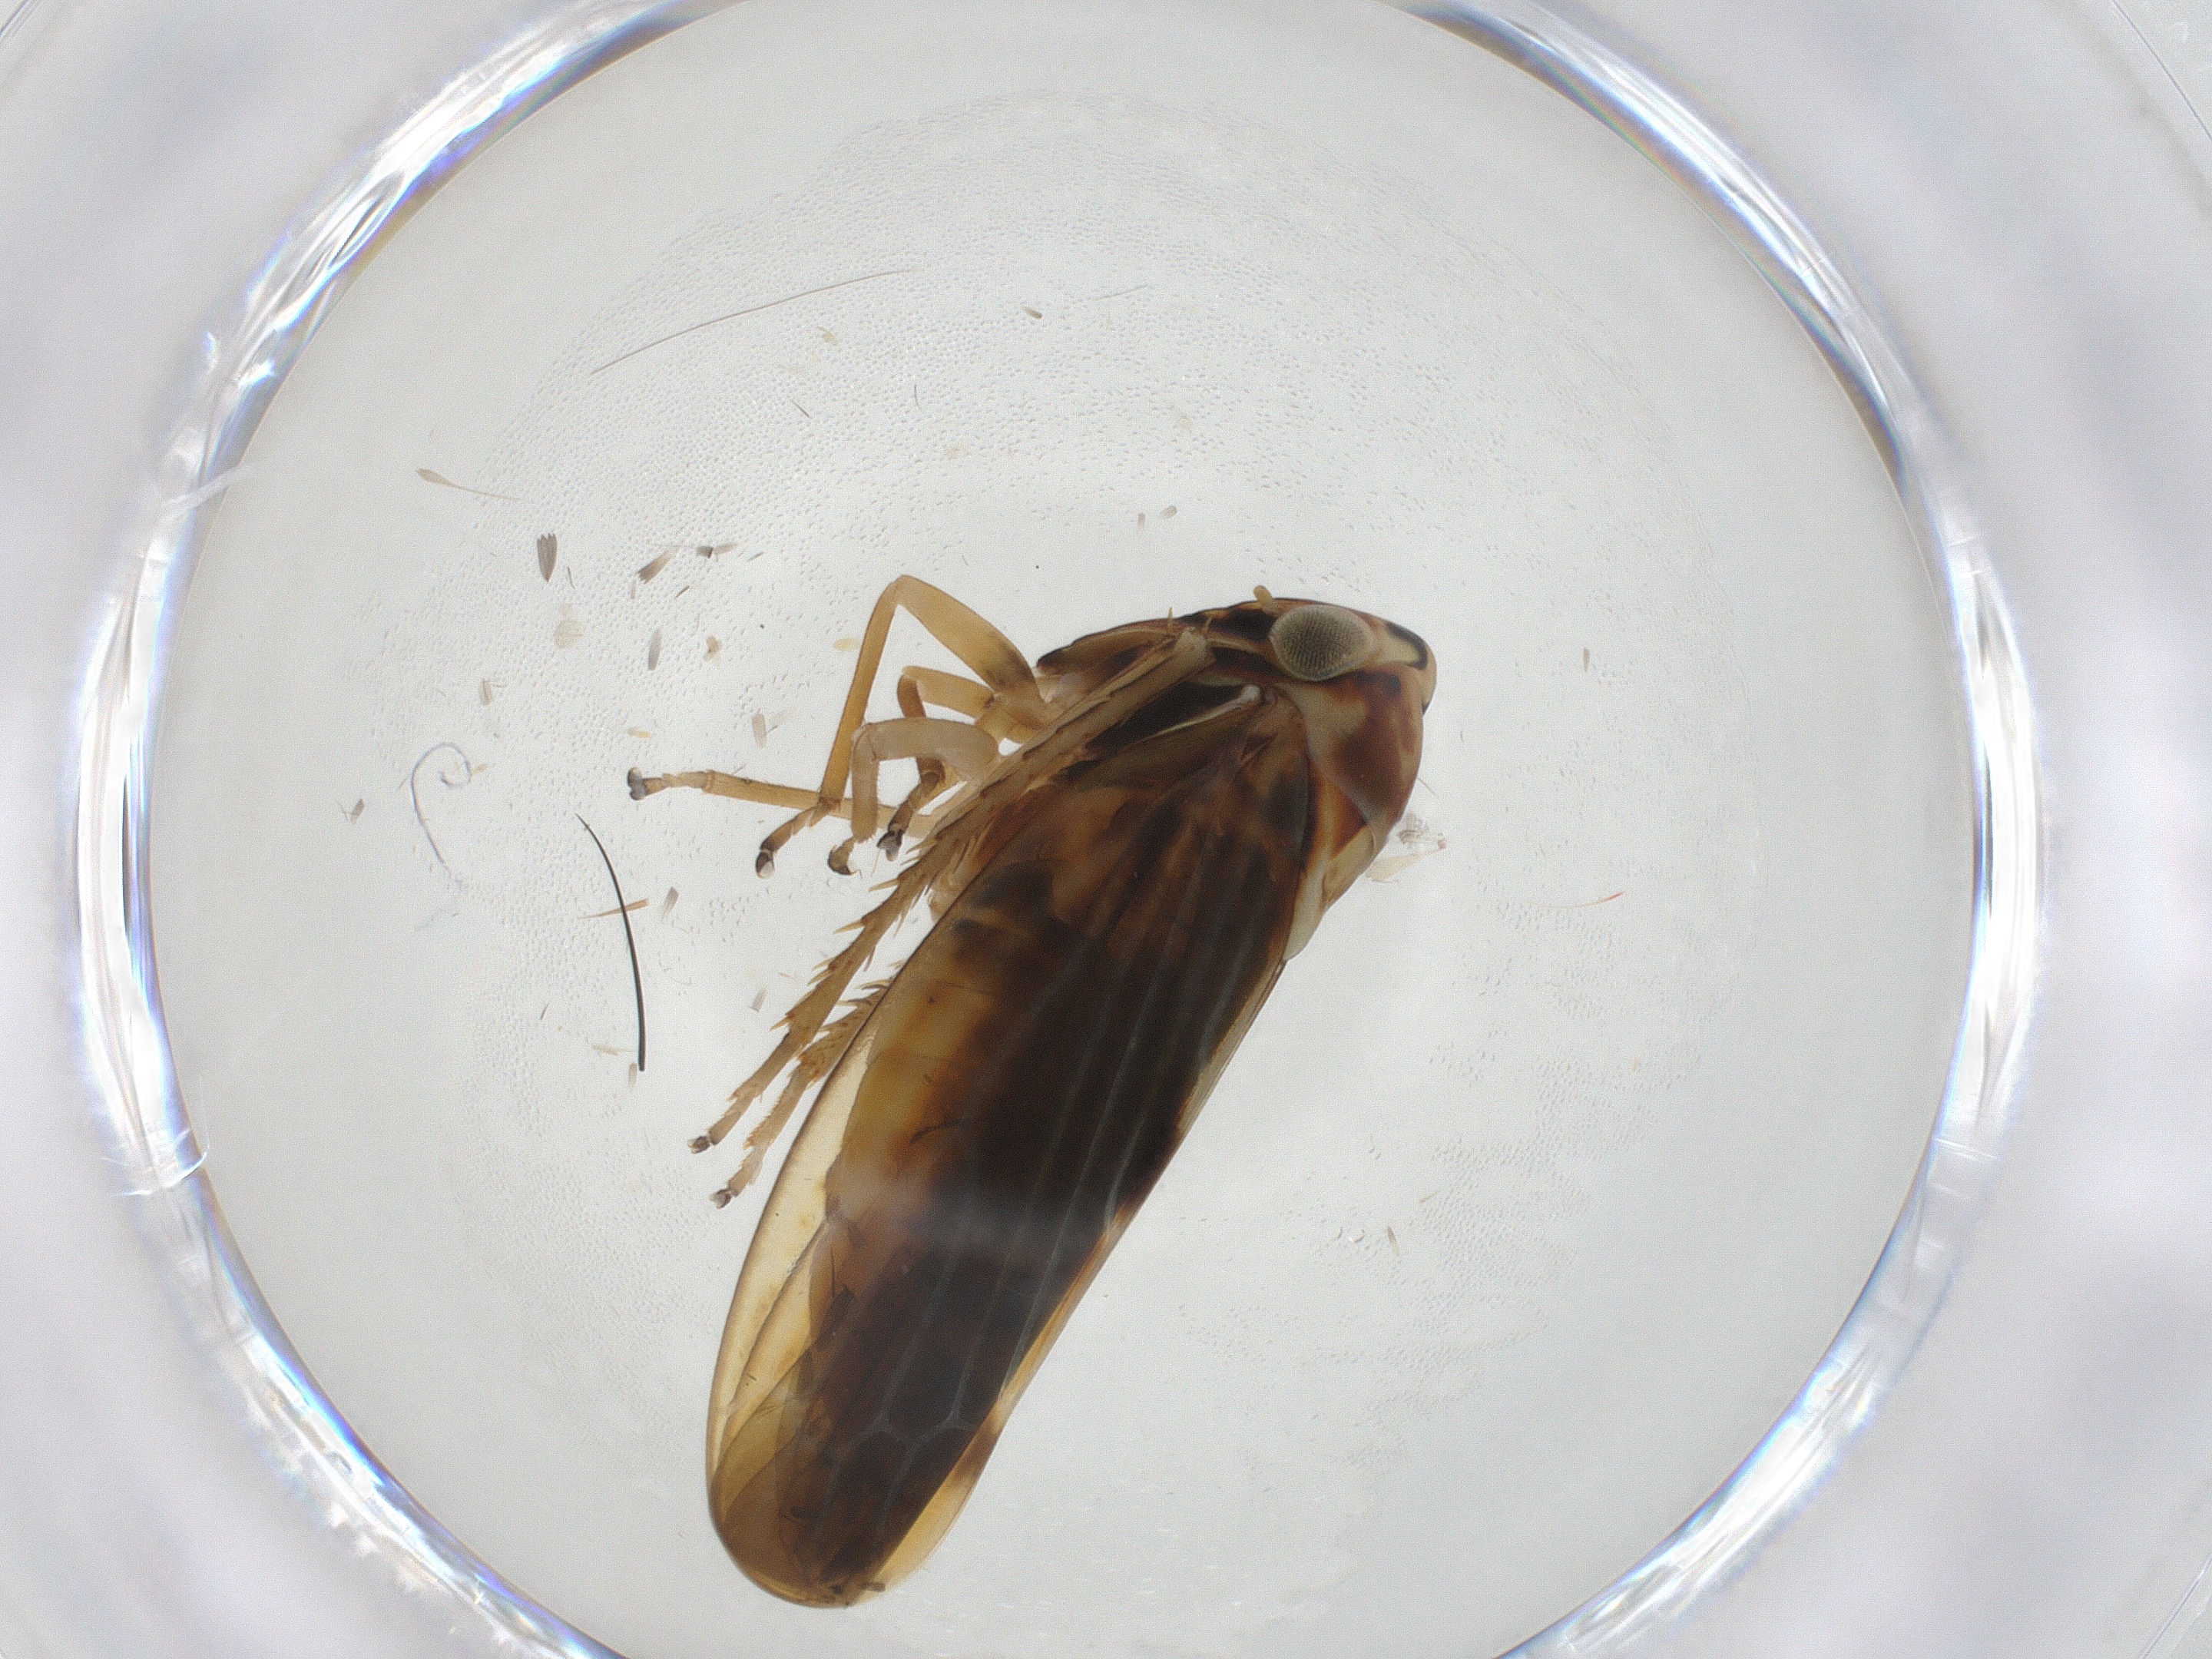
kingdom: Animalia
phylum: Arthropoda
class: Insecta
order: Hemiptera
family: Cicadellidae
